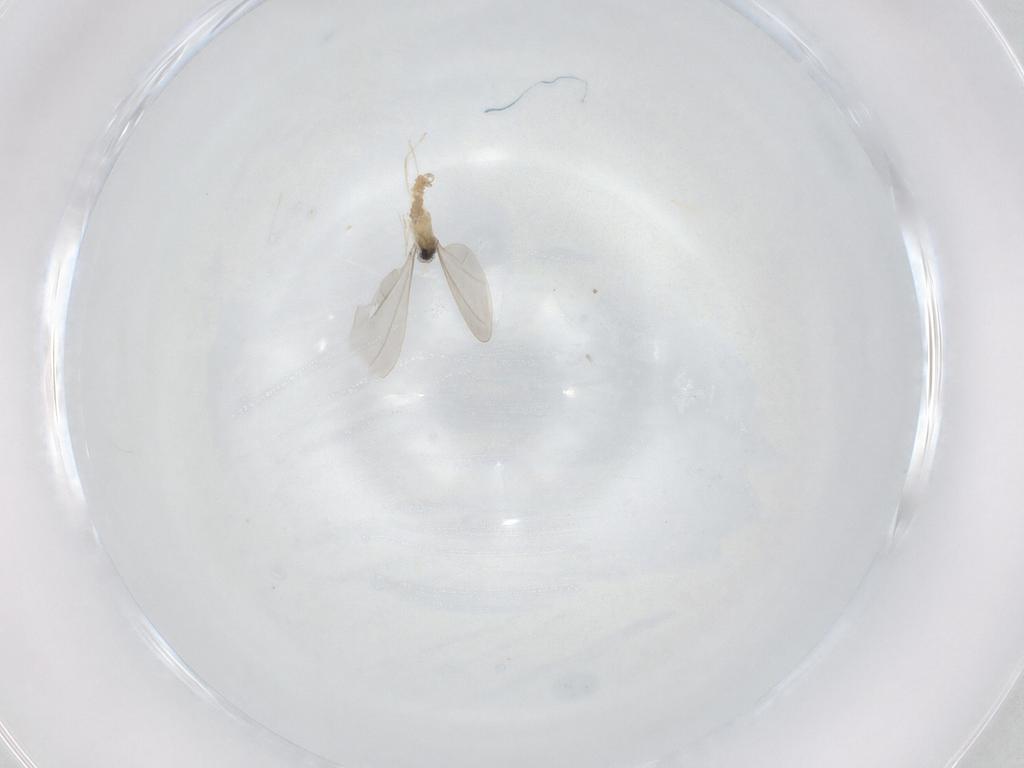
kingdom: Animalia
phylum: Arthropoda
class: Insecta
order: Diptera
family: Cecidomyiidae
